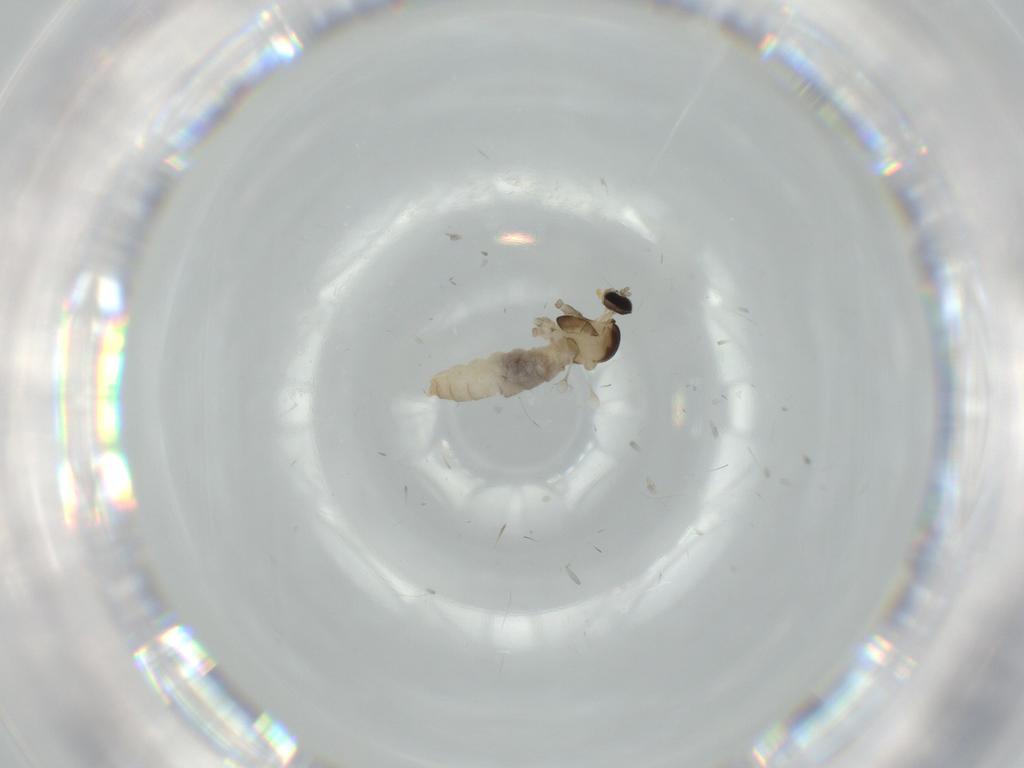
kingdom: Animalia
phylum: Arthropoda
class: Insecta
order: Diptera
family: Cecidomyiidae
